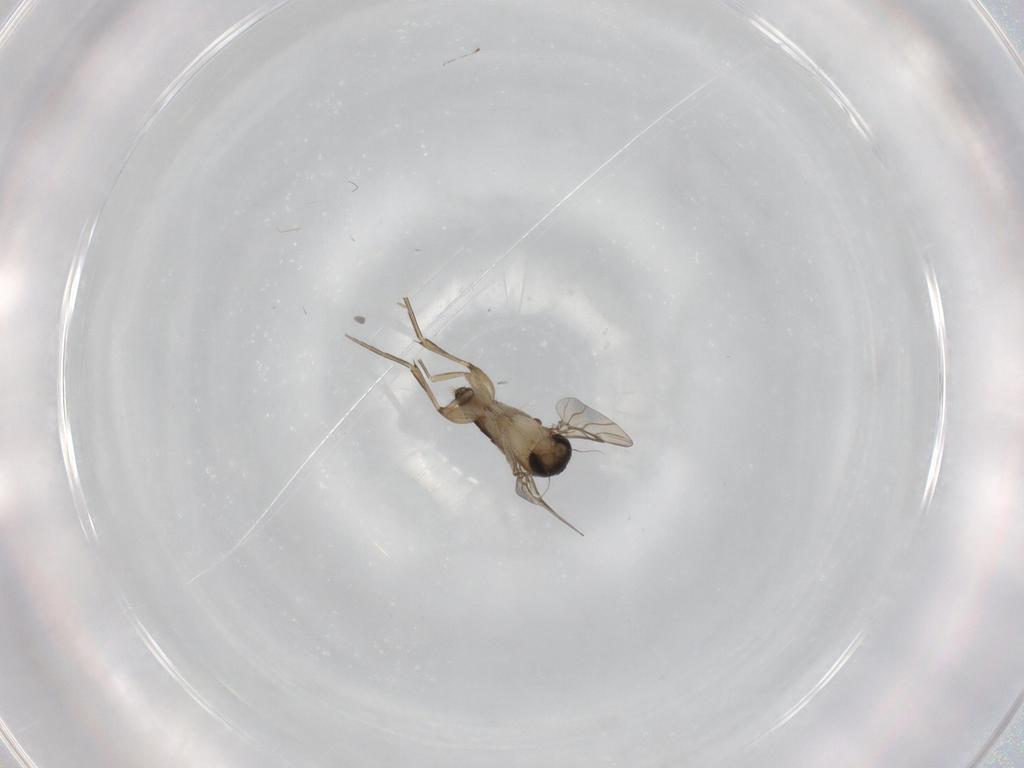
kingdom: Animalia
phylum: Arthropoda
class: Insecta
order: Diptera
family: Phoridae
